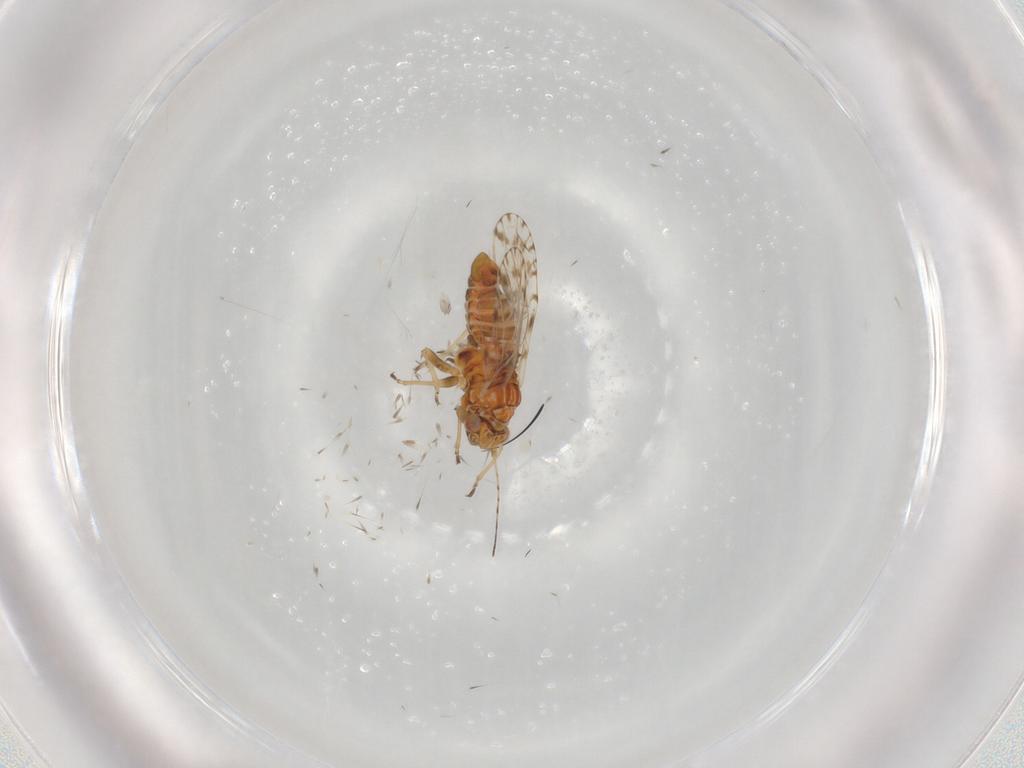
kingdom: Animalia
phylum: Arthropoda
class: Insecta
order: Hemiptera
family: Psyllidae
